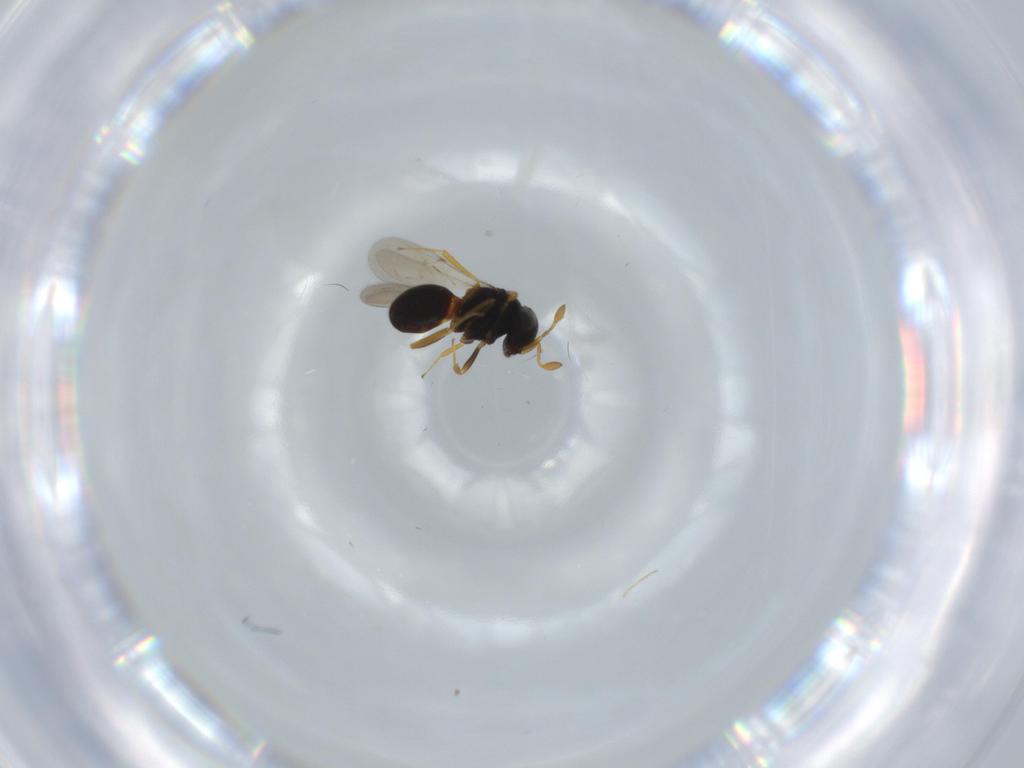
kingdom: Animalia
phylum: Arthropoda
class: Insecta
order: Hymenoptera
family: Scelionidae
